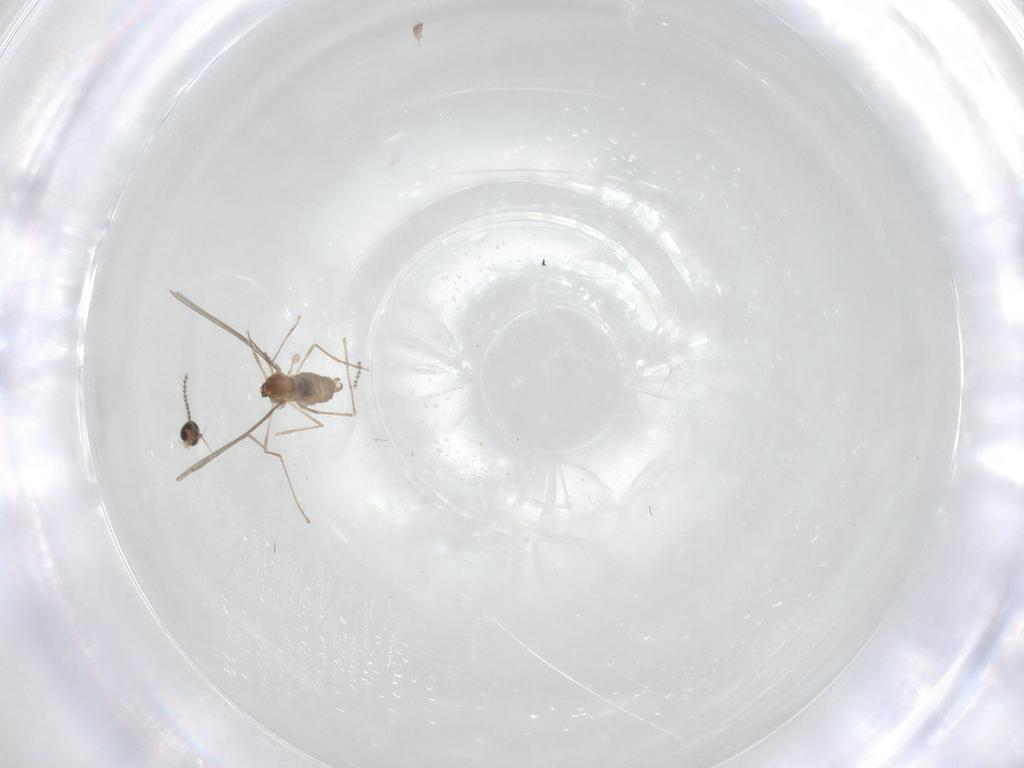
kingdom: Animalia
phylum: Arthropoda
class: Insecta
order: Diptera
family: Cecidomyiidae
